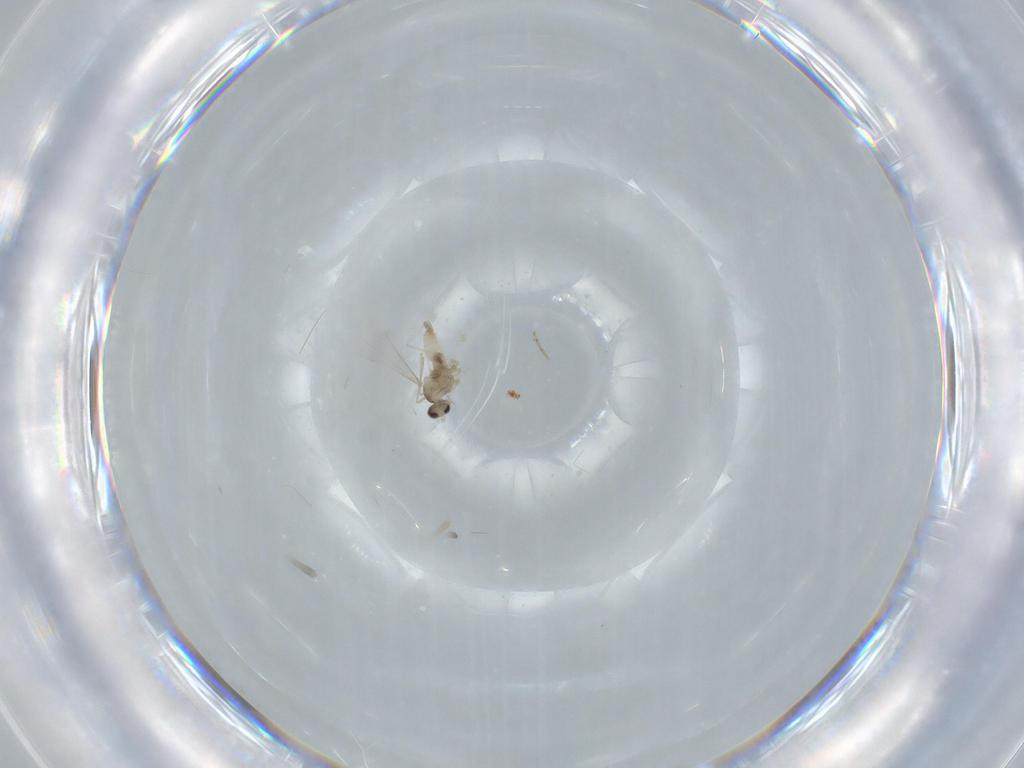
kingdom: Animalia
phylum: Arthropoda
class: Insecta
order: Diptera
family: Cecidomyiidae
